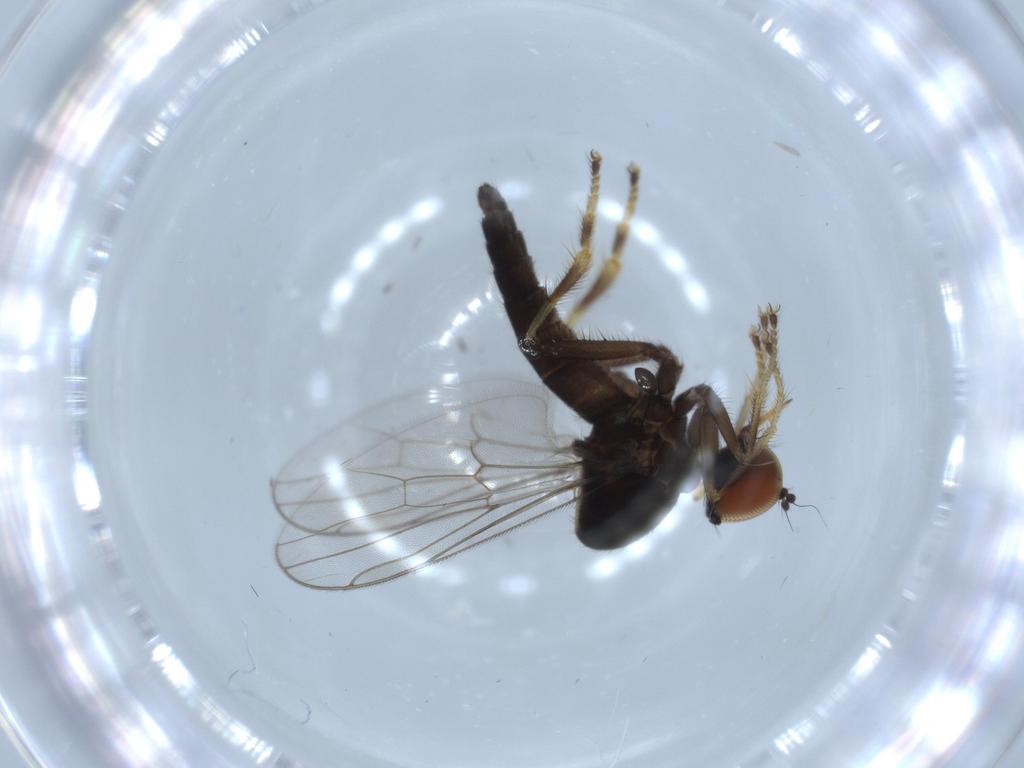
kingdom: Animalia
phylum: Arthropoda
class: Insecta
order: Diptera
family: Hybotidae
